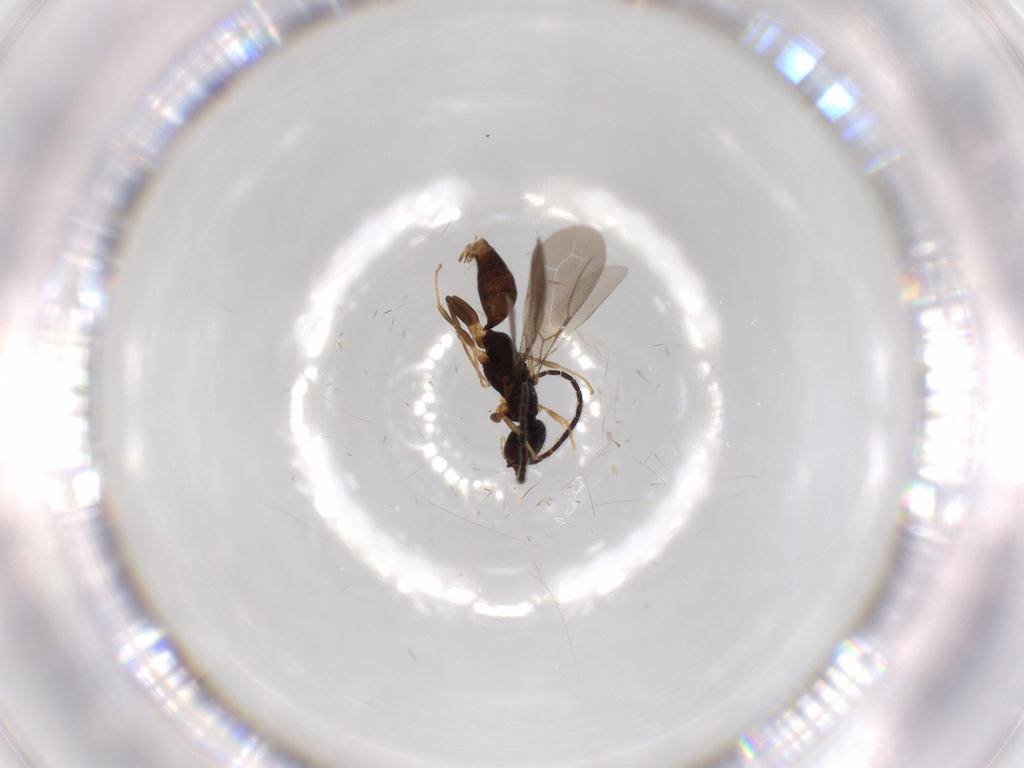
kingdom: Animalia
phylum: Arthropoda
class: Insecta
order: Hymenoptera
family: Bethylidae
